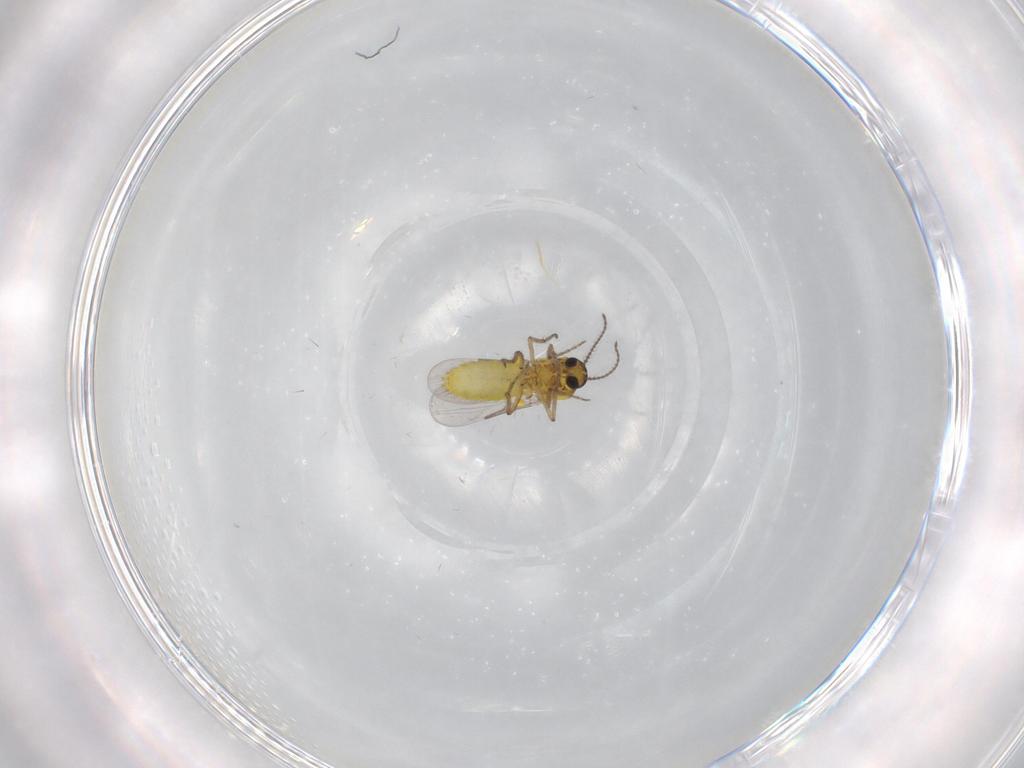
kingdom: Animalia
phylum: Arthropoda
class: Insecta
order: Diptera
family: Ceratopogonidae
